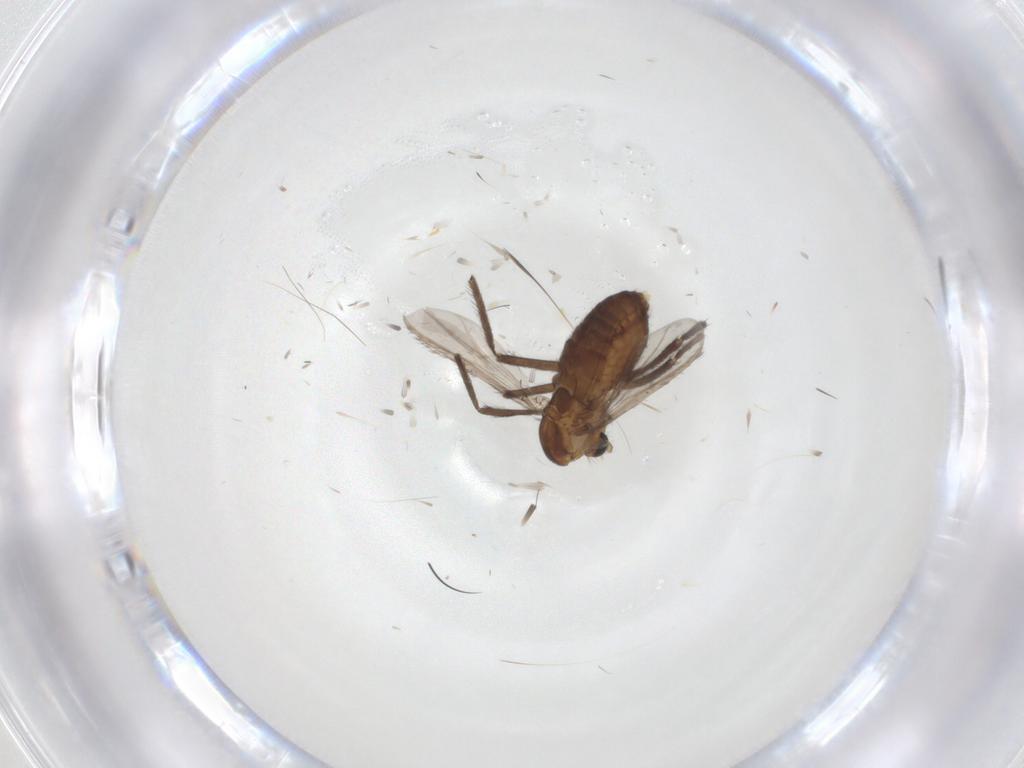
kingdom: Animalia
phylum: Arthropoda
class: Insecta
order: Diptera
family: Chironomidae
